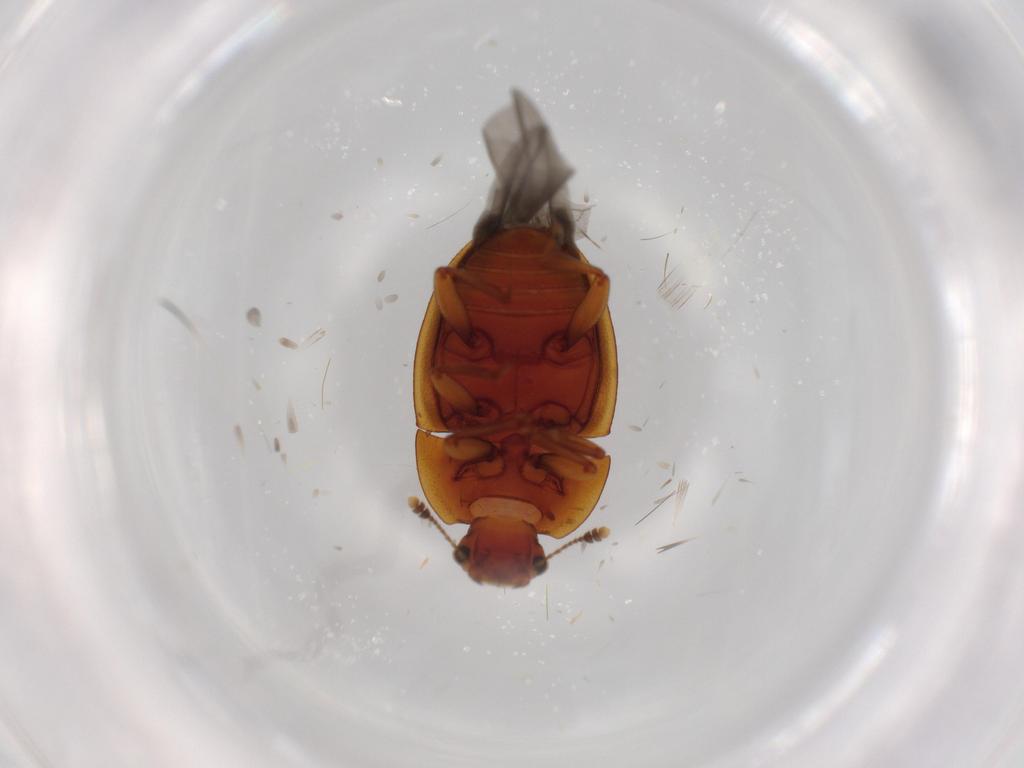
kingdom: Animalia
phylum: Arthropoda
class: Insecta
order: Coleoptera
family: Nitidulidae
